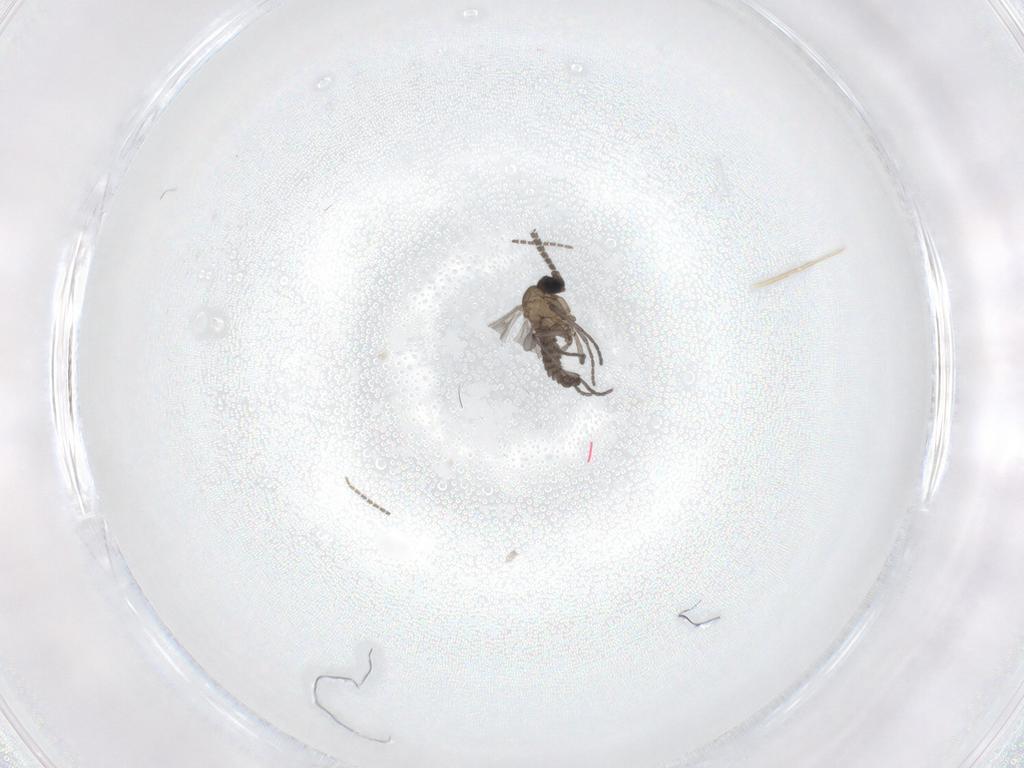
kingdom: Animalia
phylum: Arthropoda
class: Insecta
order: Diptera
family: Sciaridae
